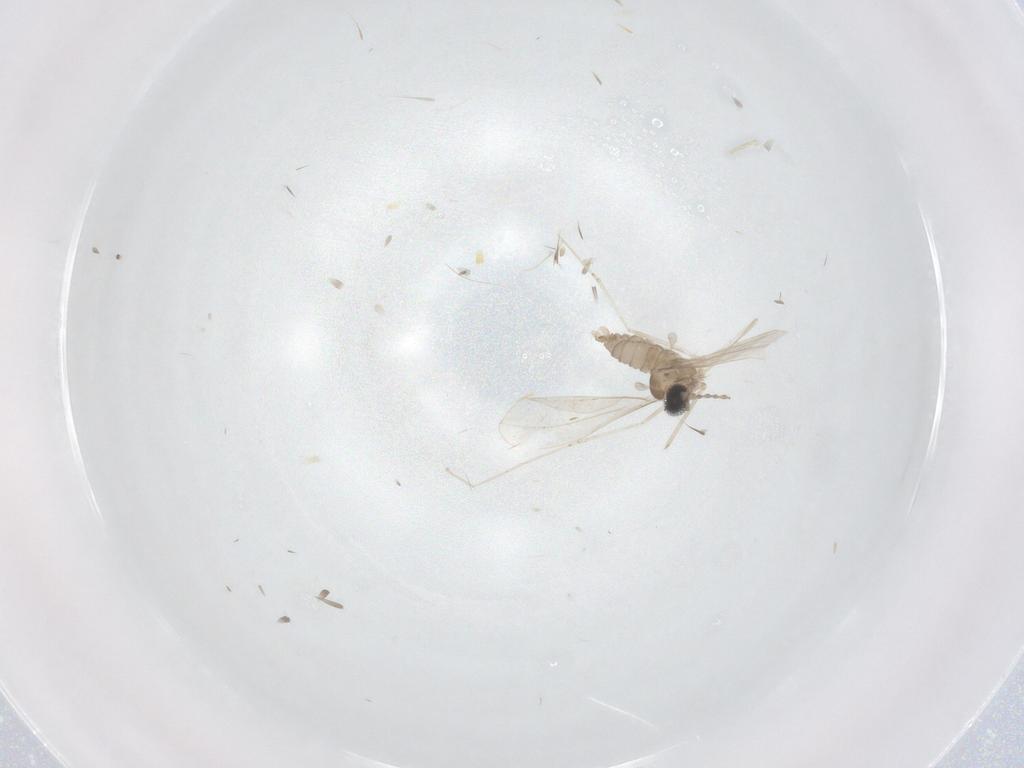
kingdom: Animalia
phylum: Arthropoda
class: Insecta
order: Diptera
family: Cecidomyiidae
